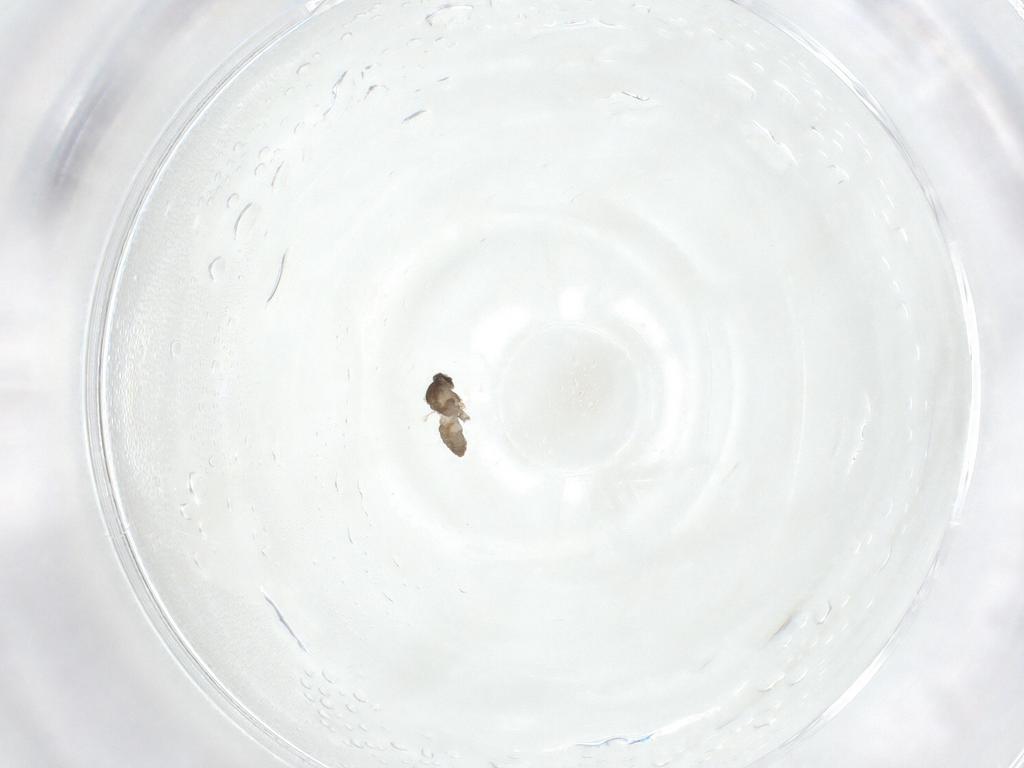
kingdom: Animalia
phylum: Arthropoda
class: Insecta
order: Diptera
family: Cecidomyiidae
